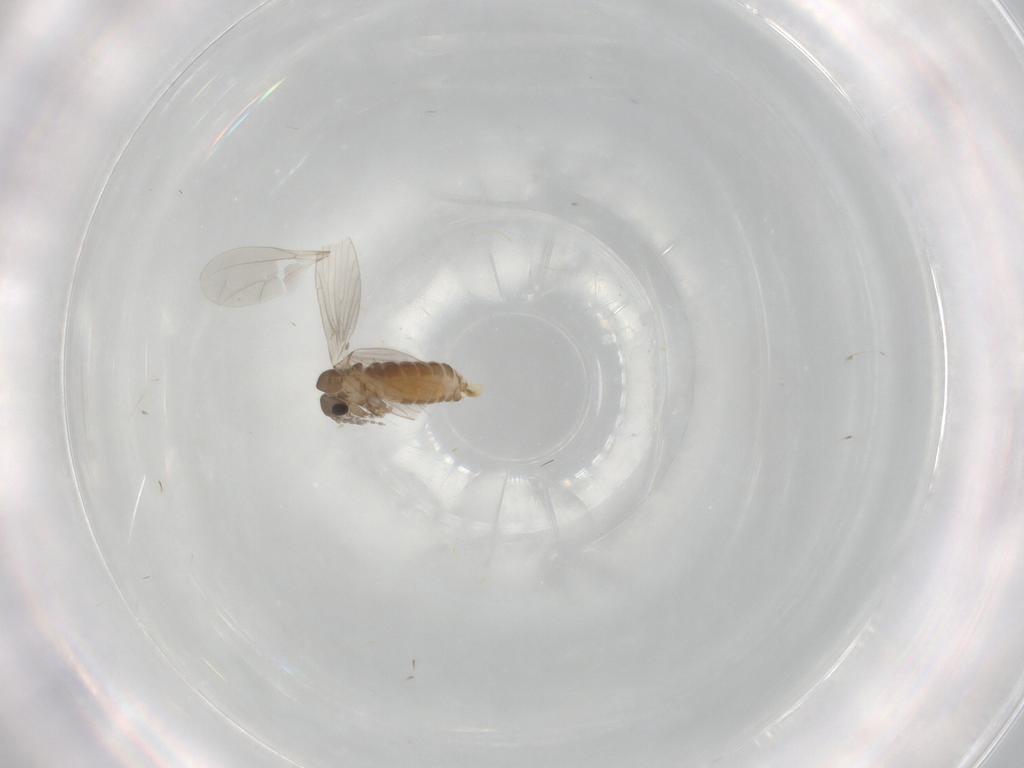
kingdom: Animalia
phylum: Arthropoda
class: Insecta
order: Diptera
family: Psychodidae
